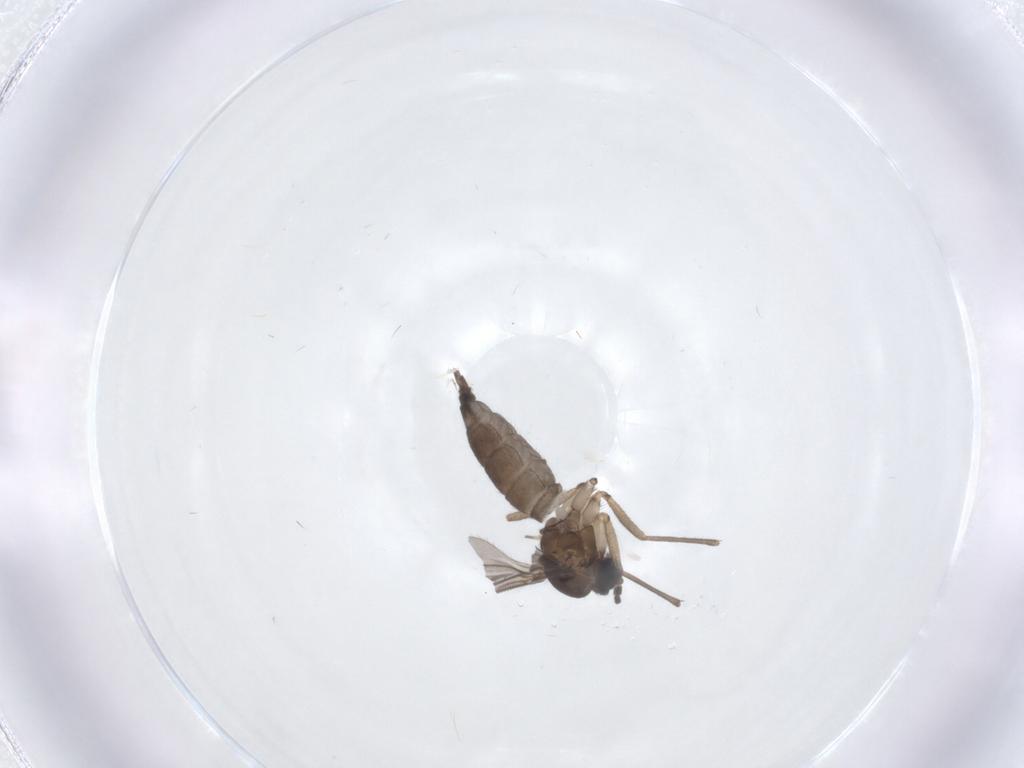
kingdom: Animalia
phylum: Arthropoda
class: Insecta
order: Diptera
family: Sciaridae
